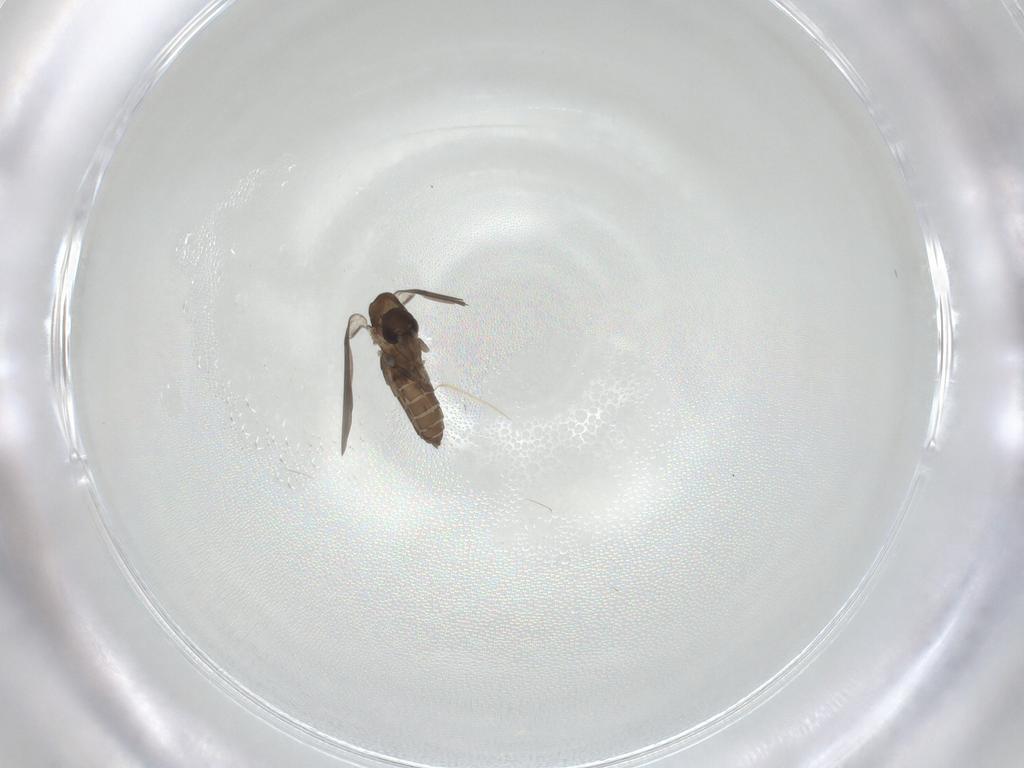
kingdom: Animalia
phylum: Arthropoda
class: Insecta
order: Diptera
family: Psychodidae
